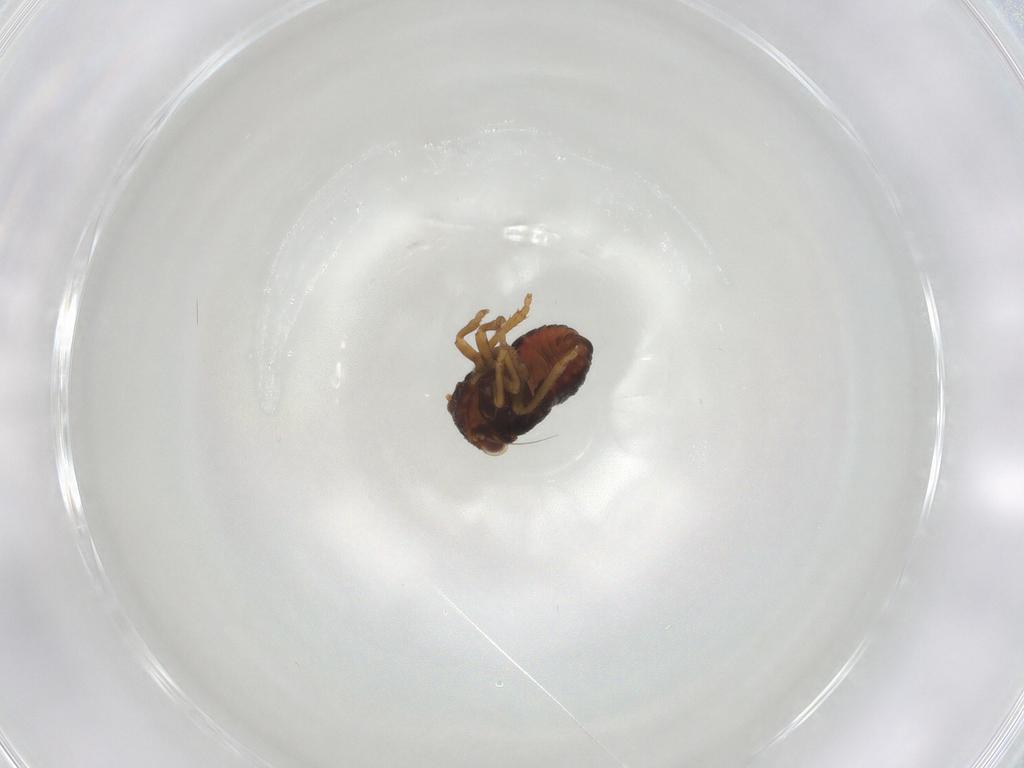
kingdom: Animalia
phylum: Arthropoda
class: Insecta
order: Hemiptera
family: Cicadellidae
